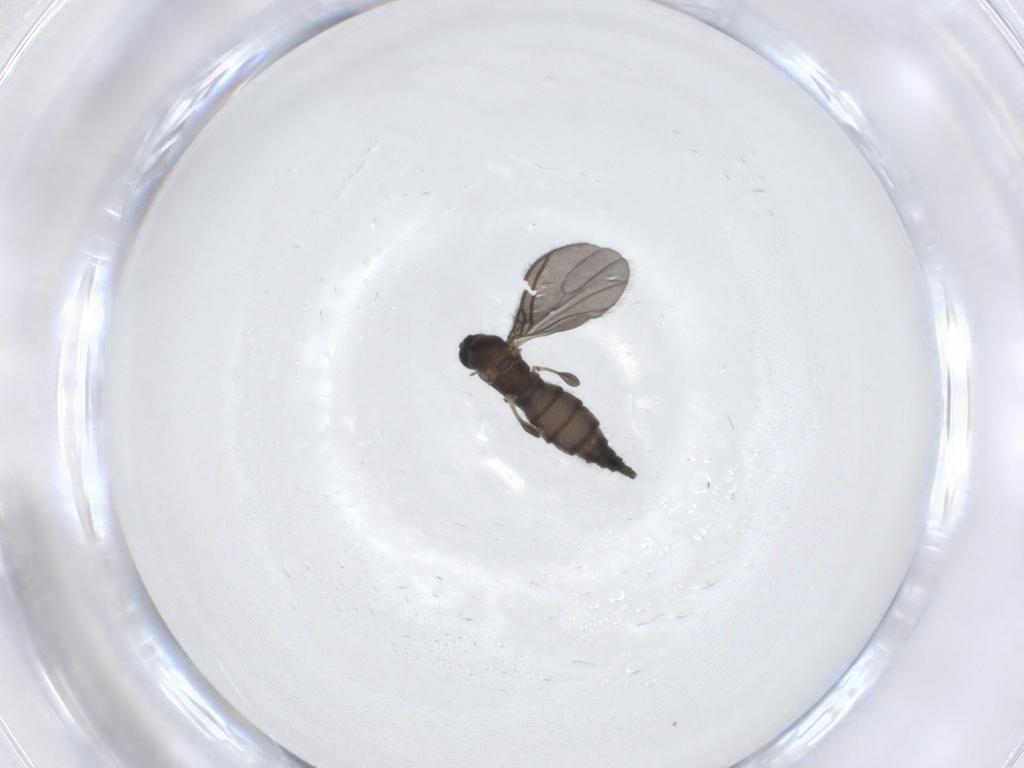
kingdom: Animalia
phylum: Arthropoda
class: Insecta
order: Diptera
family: Sciaridae
